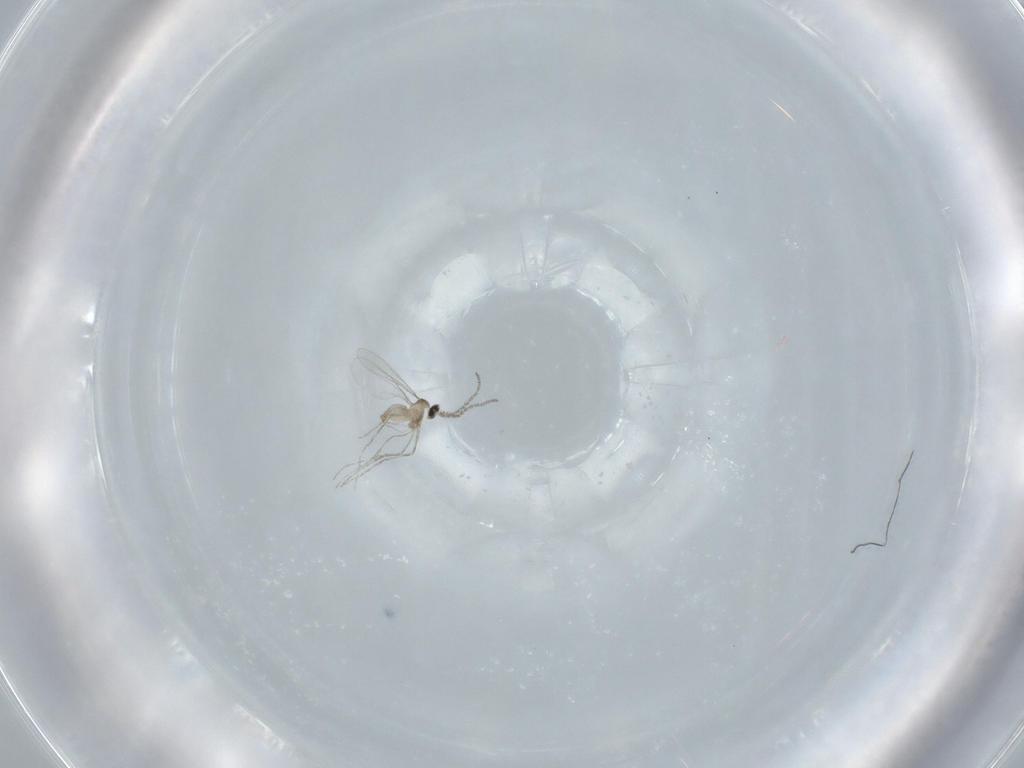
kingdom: Animalia
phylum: Arthropoda
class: Insecta
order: Diptera
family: Cecidomyiidae
